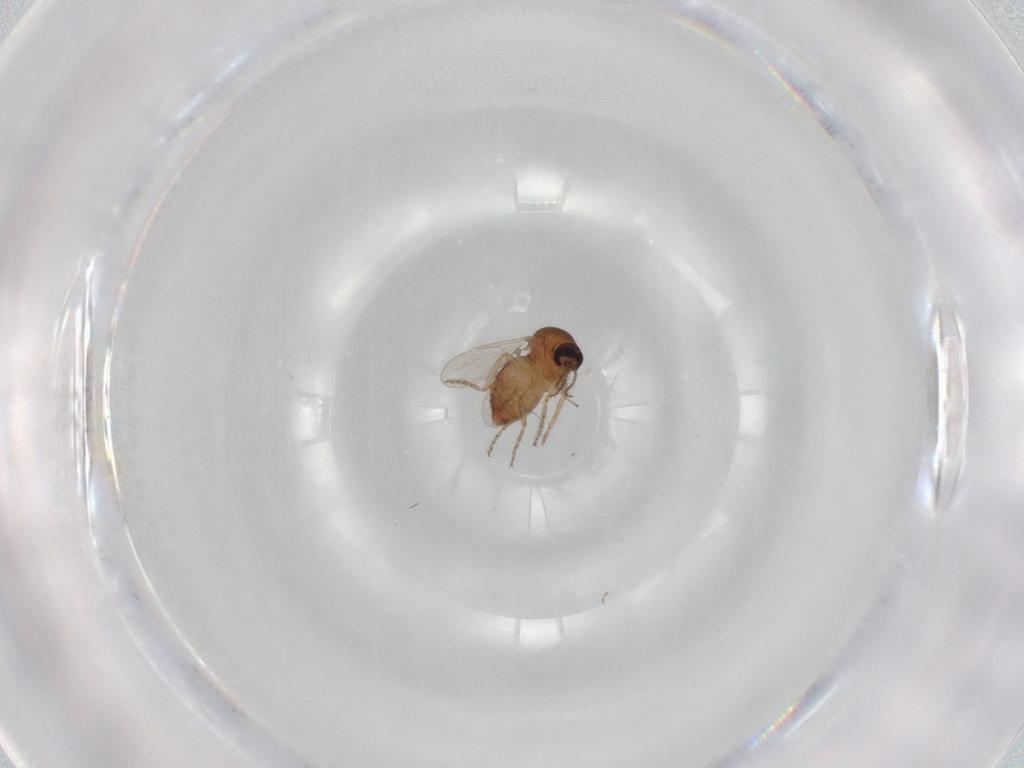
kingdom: Animalia
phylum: Arthropoda
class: Insecta
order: Diptera
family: Ceratopogonidae
